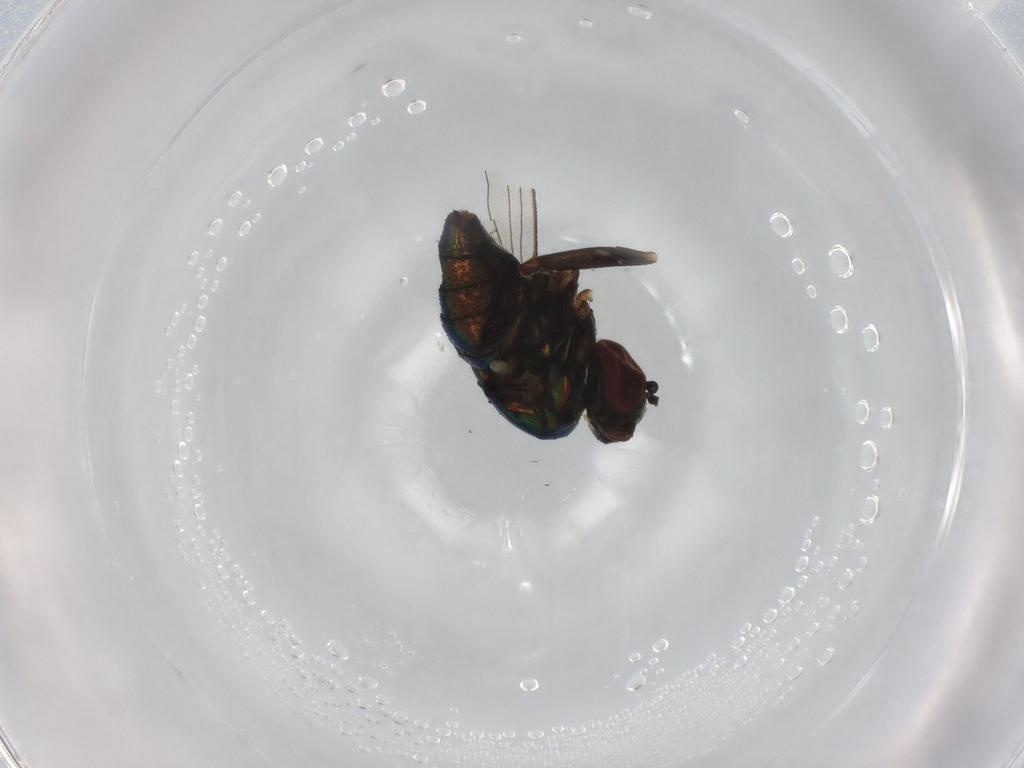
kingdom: Animalia
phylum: Arthropoda
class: Insecta
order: Diptera
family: Dolichopodidae
